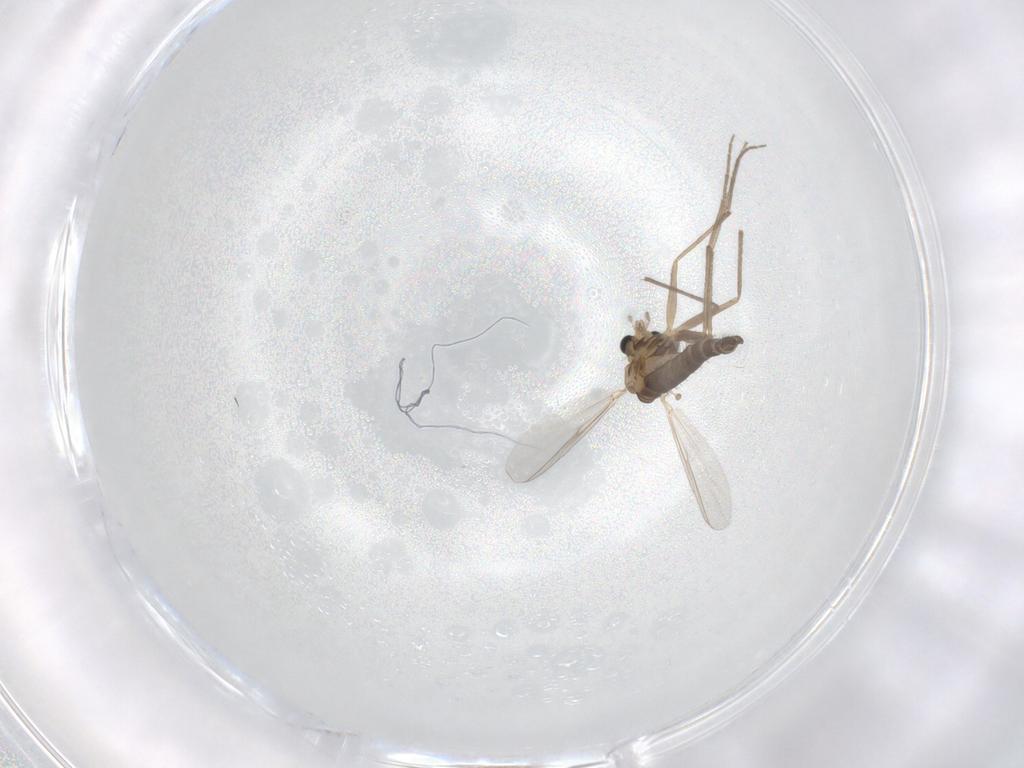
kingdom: Animalia
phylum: Arthropoda
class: Insecta
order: Diptera
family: Chironomidae
